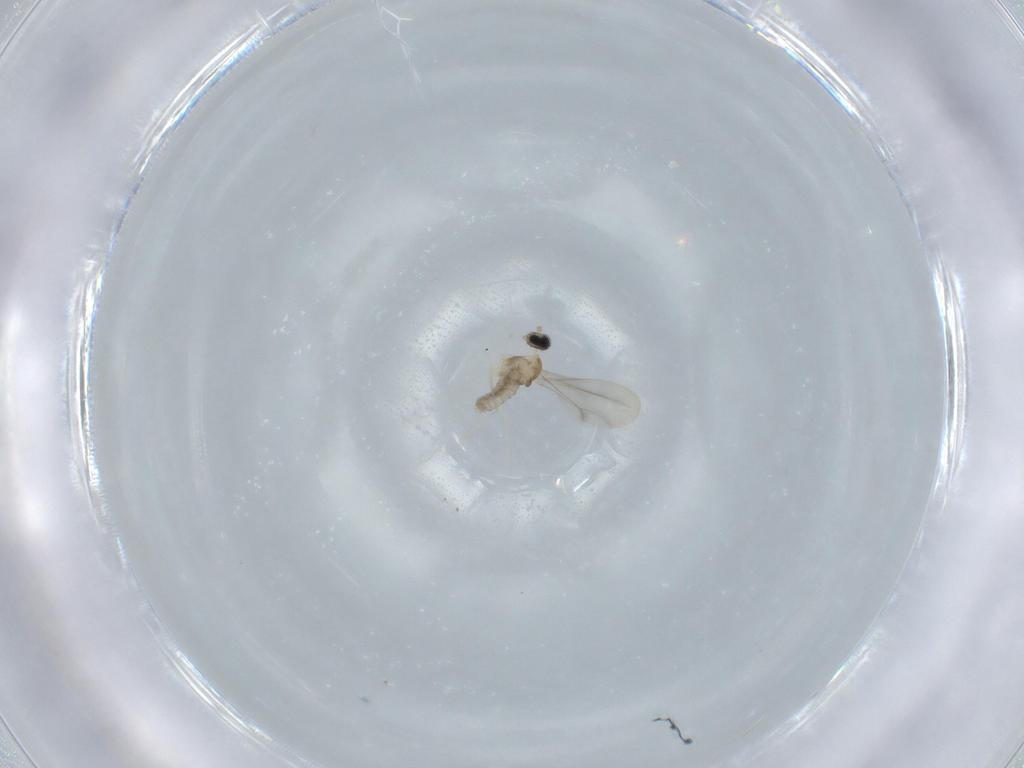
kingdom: Animalia
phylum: Arthropoda
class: Insecta
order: Diptera
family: Cecidomyiidae
